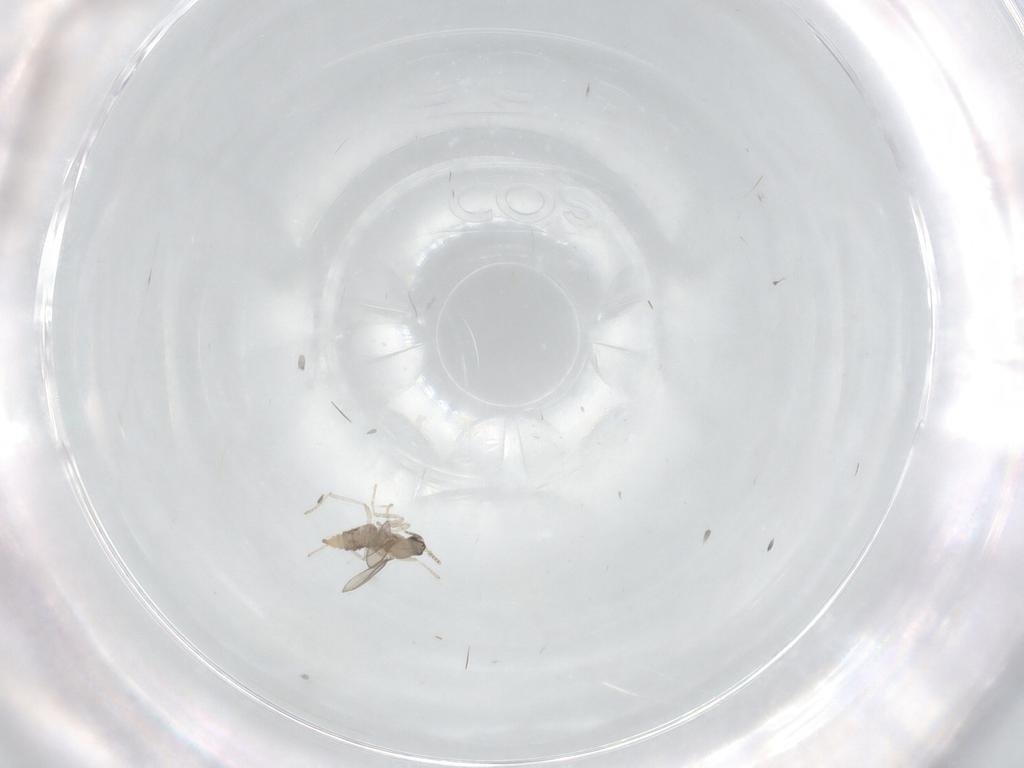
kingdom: Animalia
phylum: Arthropoda
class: Insecta
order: Diptera
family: Cecidomyiidae
